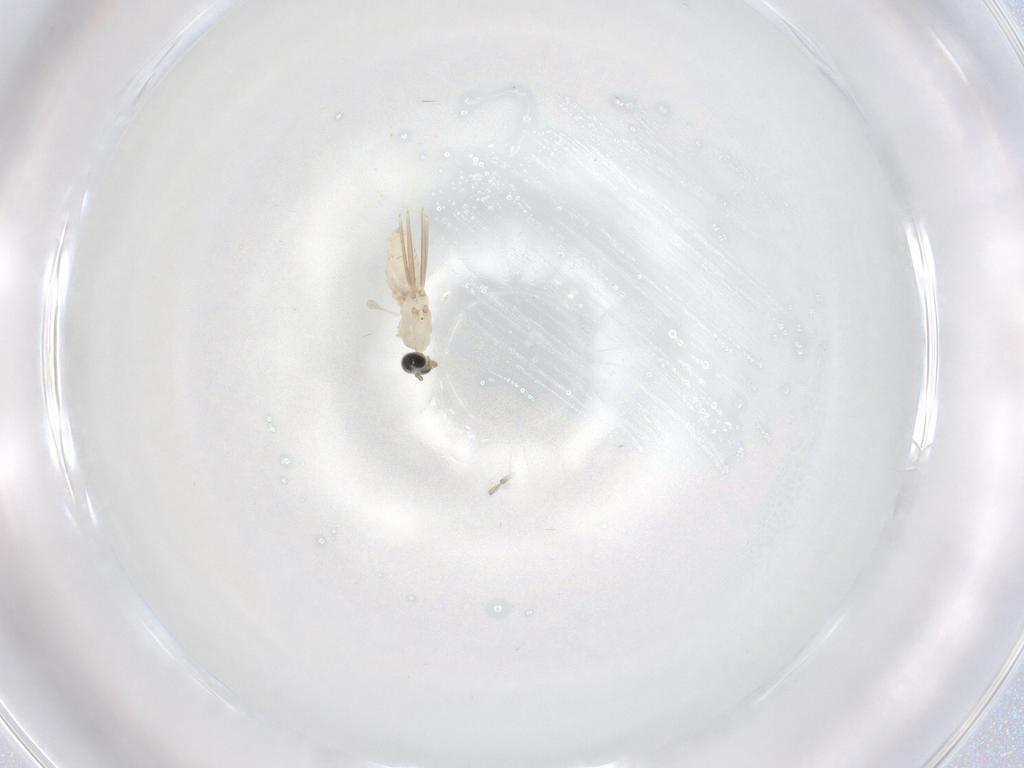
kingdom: Animalia
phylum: Arthropoda
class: Insecta
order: Diptera
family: Cecidomyiidae
